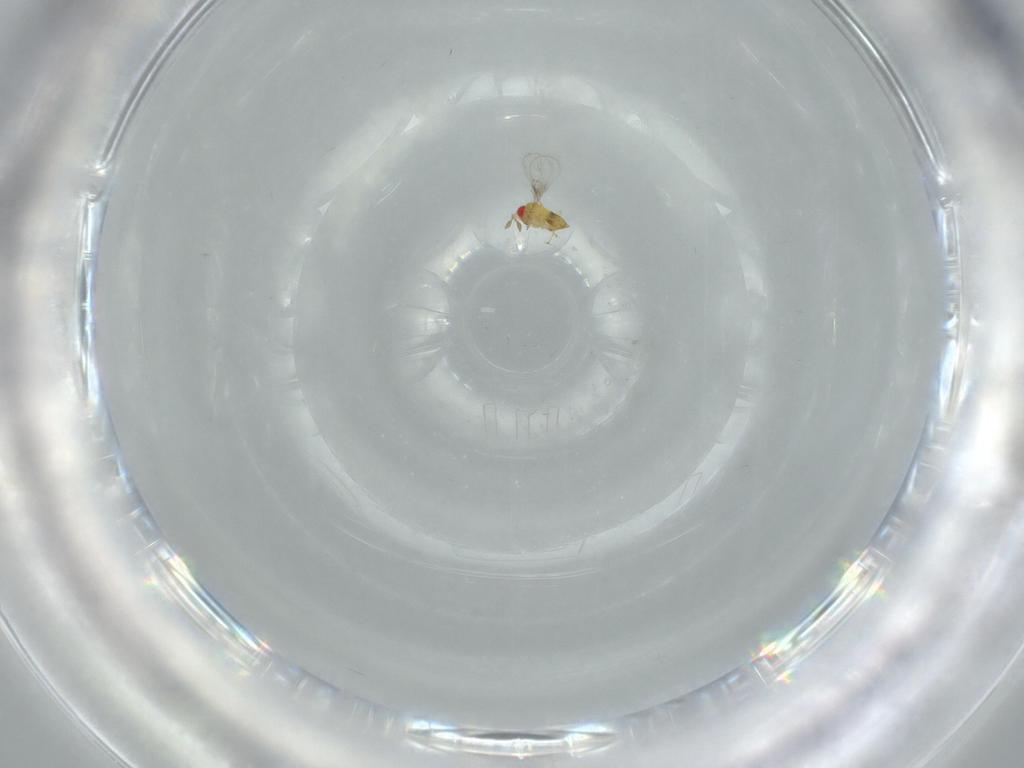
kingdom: Animalia
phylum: Arthropoda
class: Insecta
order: Hymenoptera
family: Trichogrammatidae
